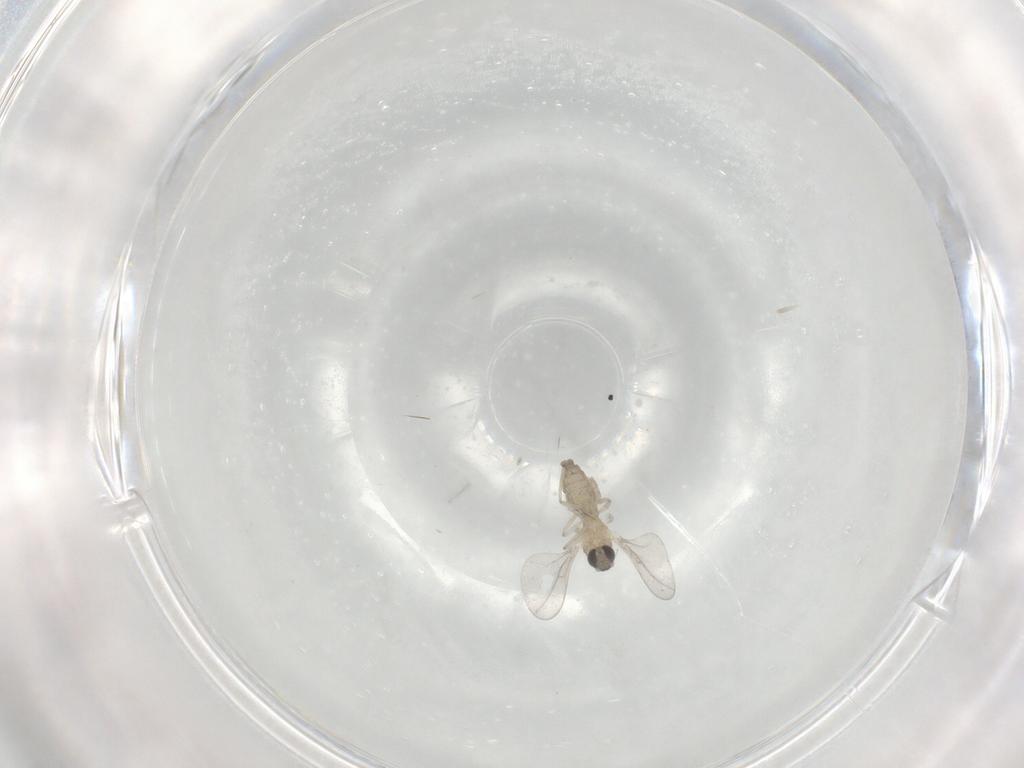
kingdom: Animalia
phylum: Arthropoda
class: Insecta
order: Diptera
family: Cecidomyiidae
